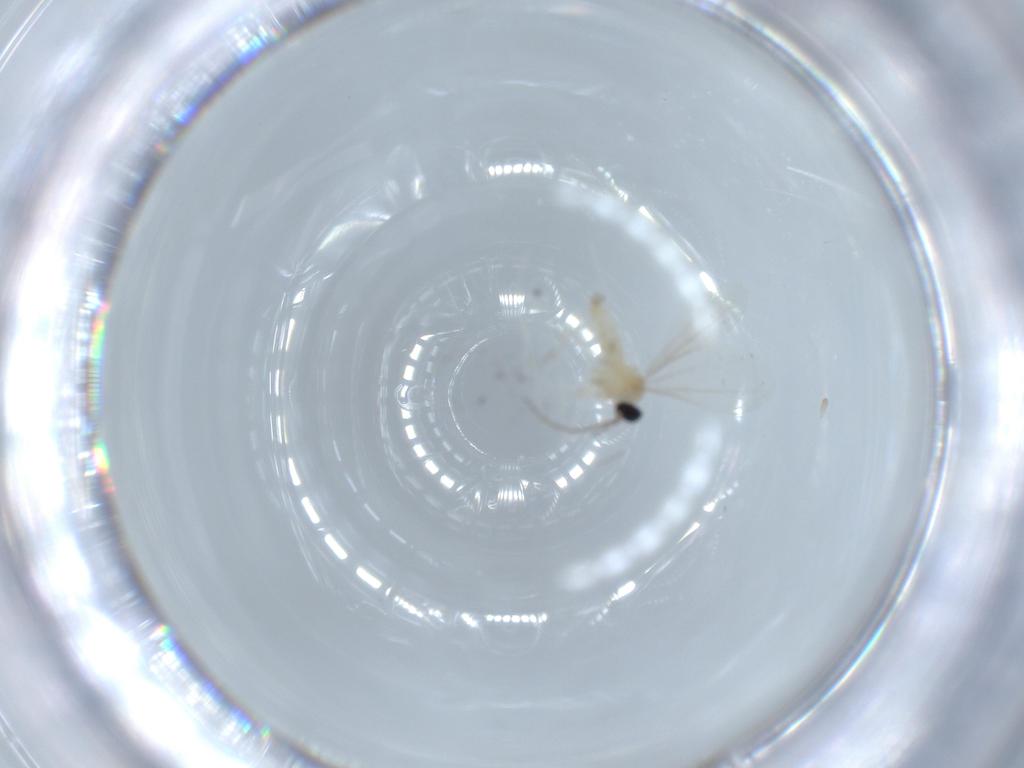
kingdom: Animalia
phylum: Arthropoda
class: Insecta
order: Diptera
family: Cecidomyiidae
